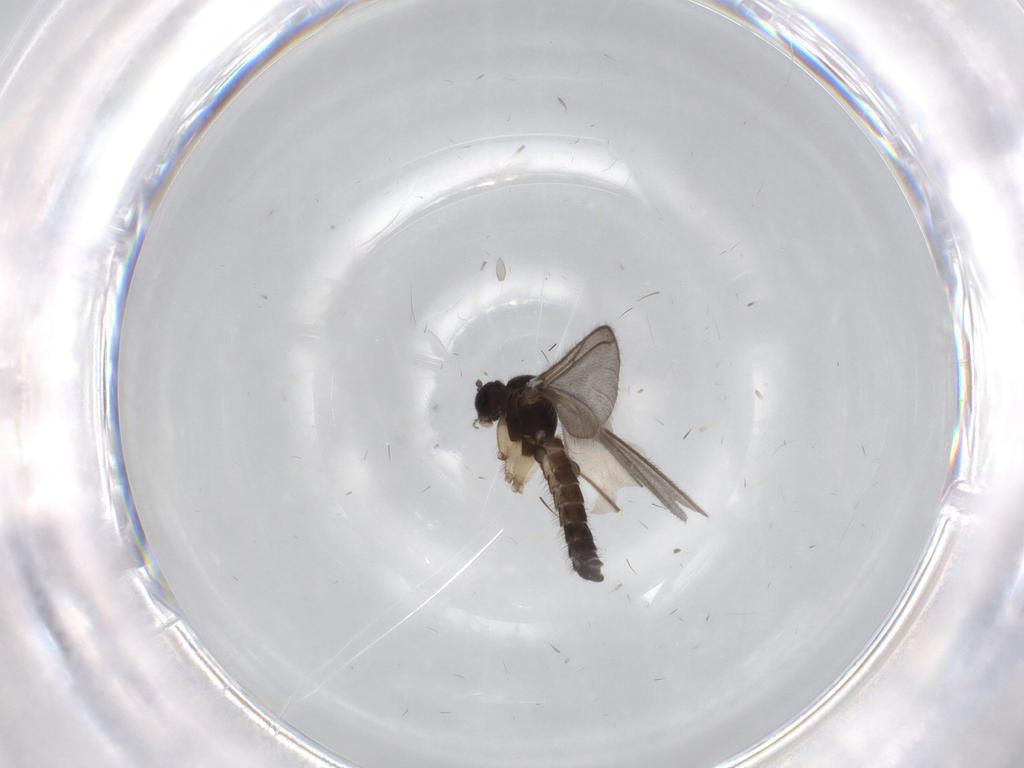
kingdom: Animalia
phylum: Arthropoda
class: Insecta
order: Diptera
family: Mycetophilidae
